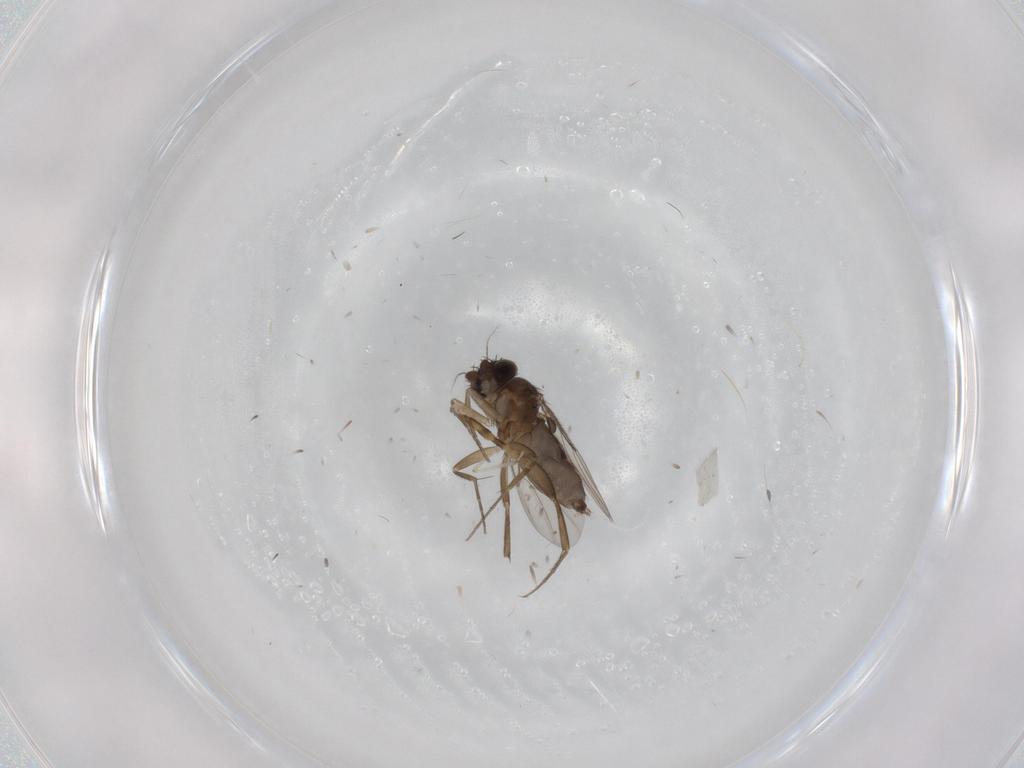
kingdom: Animalia
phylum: Arthropoda
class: Insecta
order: Diptera
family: Phoridae
